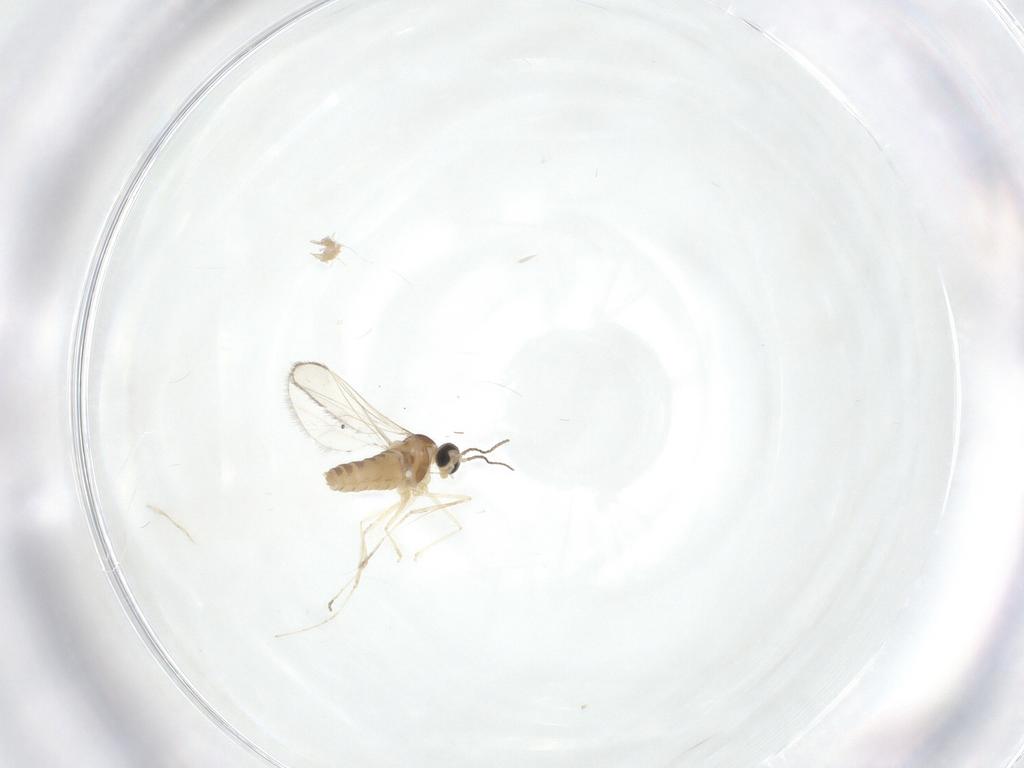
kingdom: Animalia
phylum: Arthropoda
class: Insecta
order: Diptera
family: Cecidomyiidae
